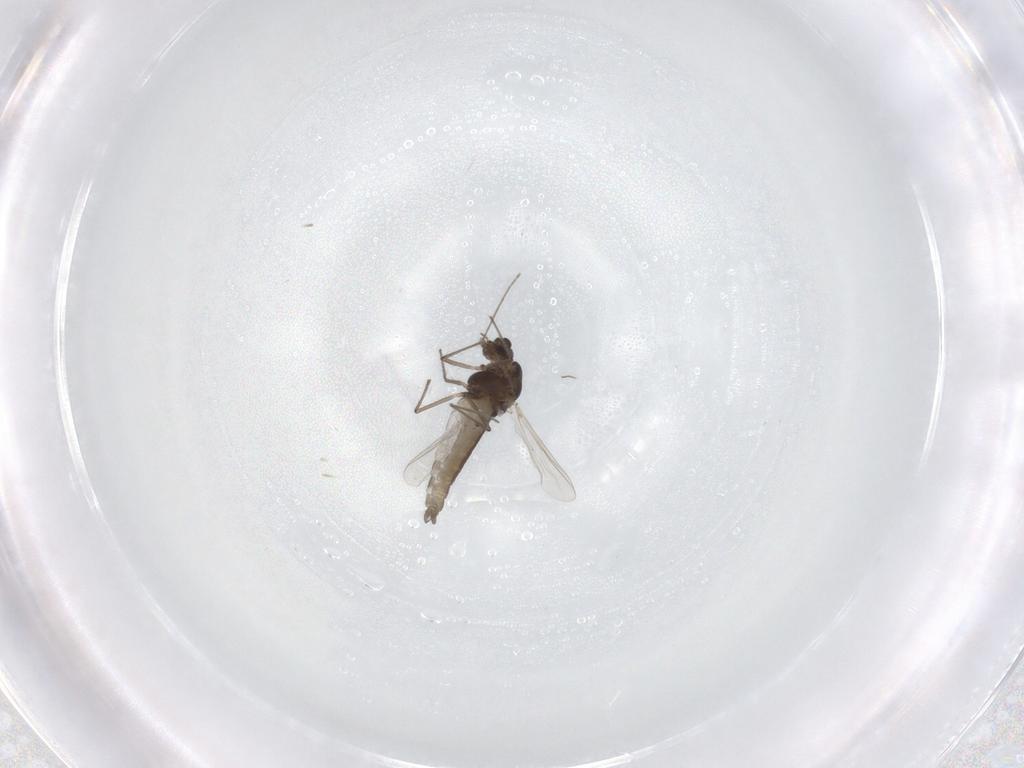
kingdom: Animalia
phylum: Arthropoda
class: Insecta
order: Diptera
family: Chironomidae
